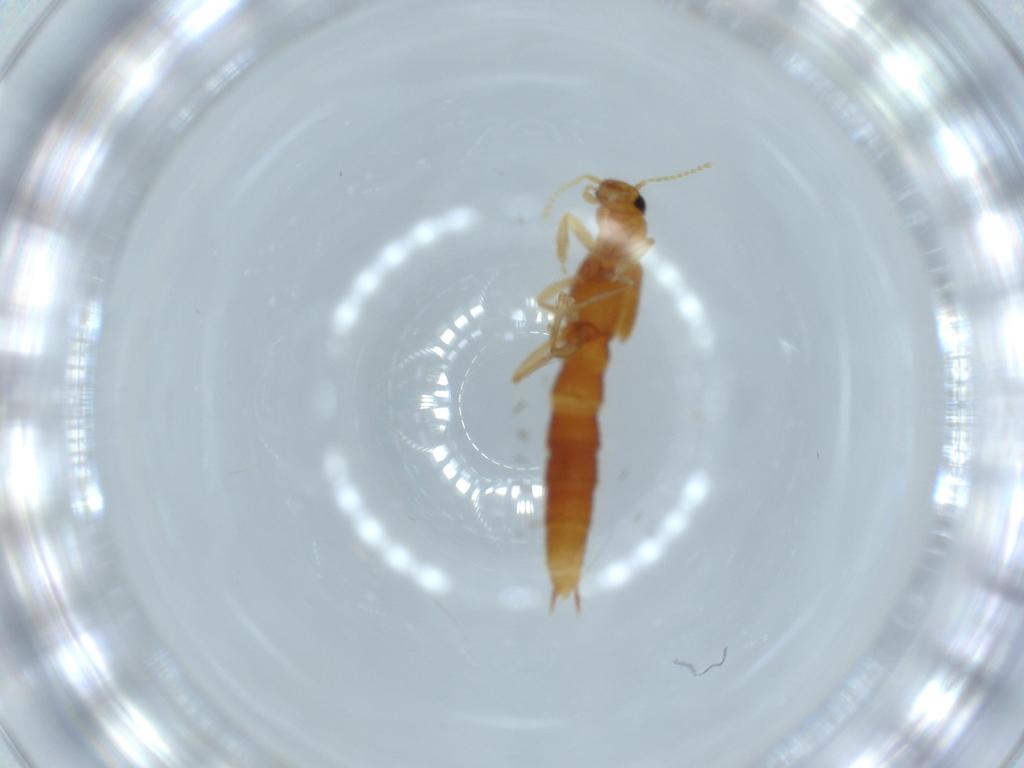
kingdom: Animalia
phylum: Arthropoda
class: Insecta
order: Coleoptera
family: Staphylinidae
